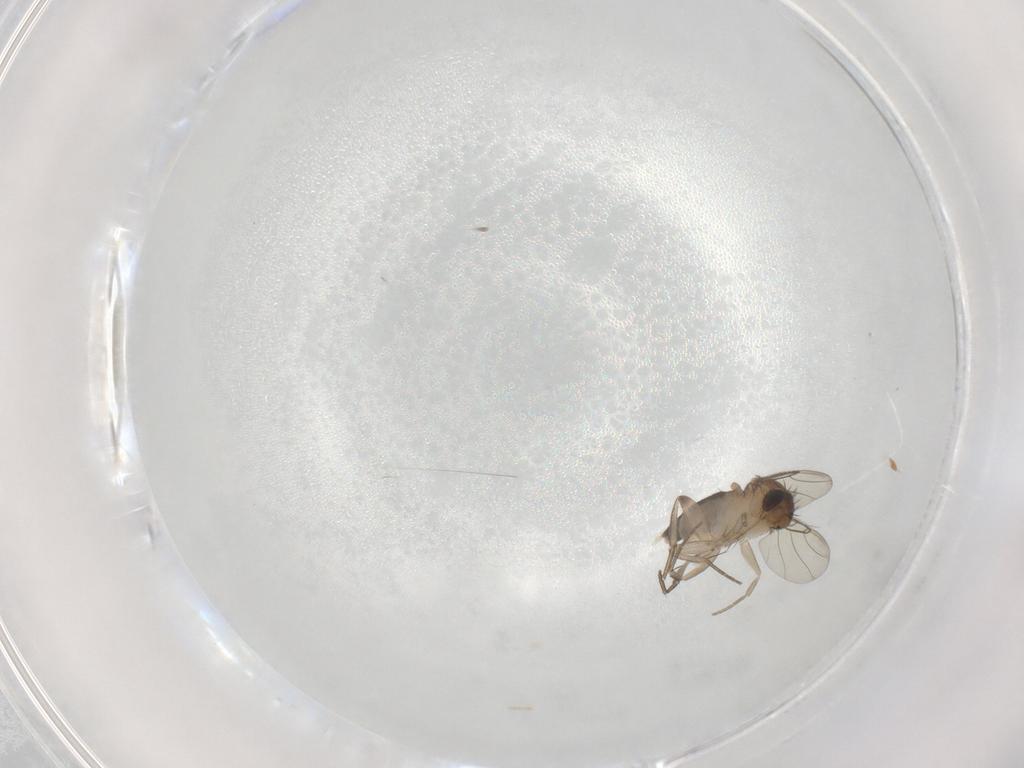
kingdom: Animalia
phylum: Arthropoda
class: Insecta
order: Diptera
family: Phoridae
